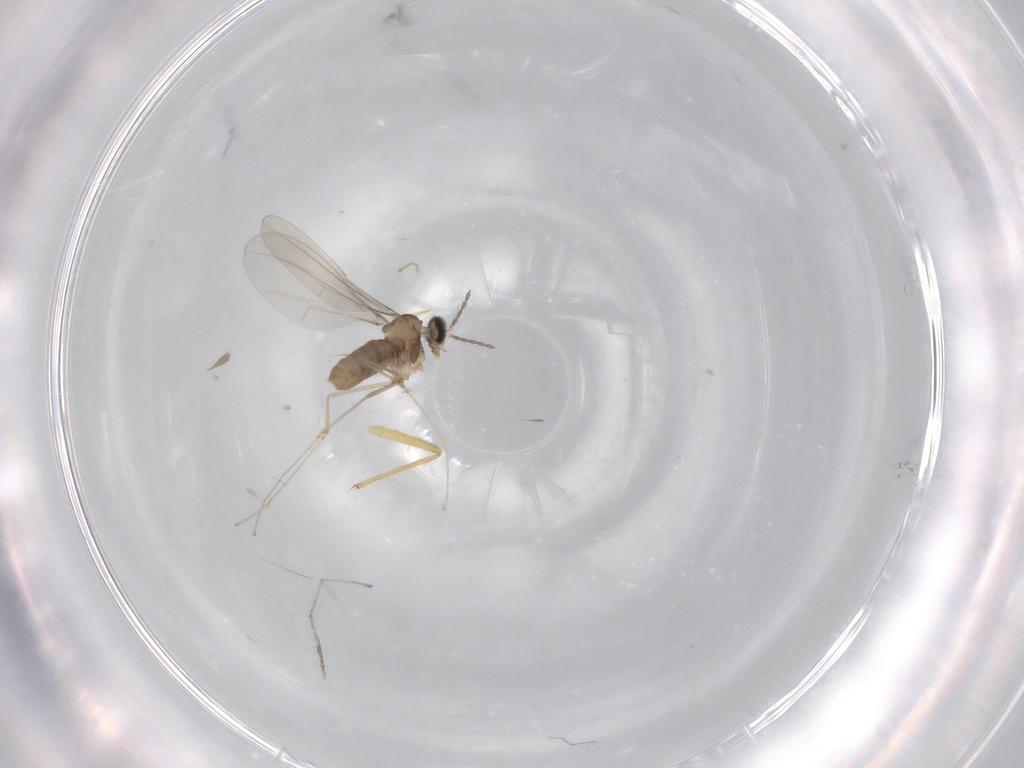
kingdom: Animalia
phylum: Arthropoda
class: Insecta
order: Diptera
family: Chironomidae
